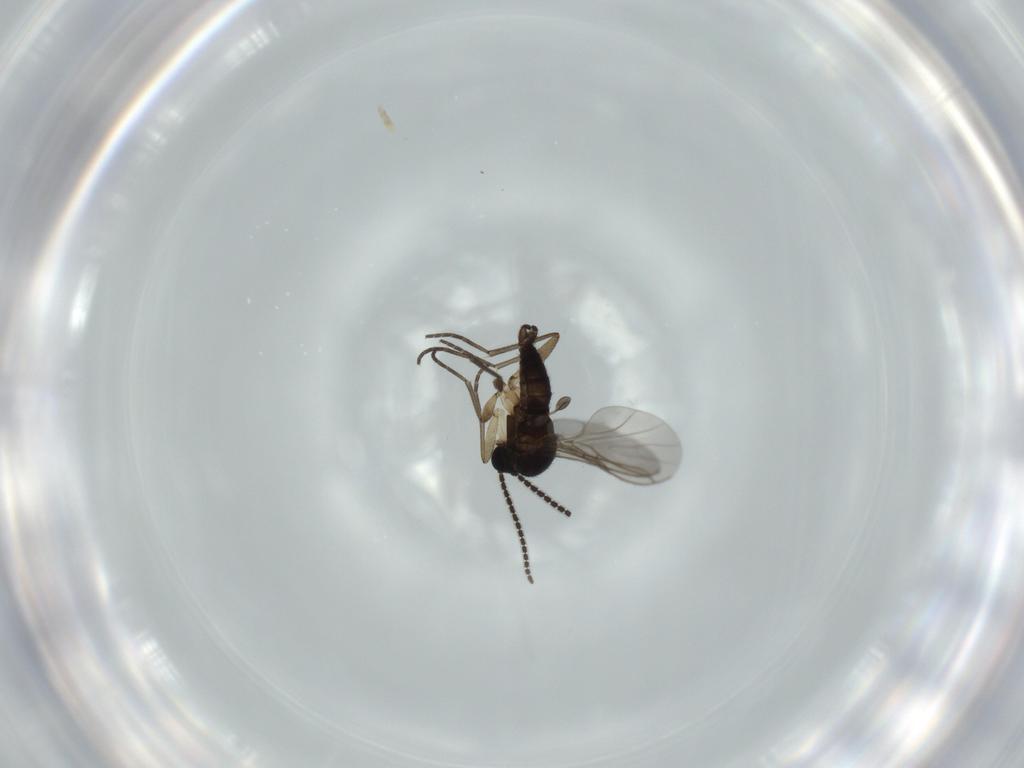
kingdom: Animalia
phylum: Arthropoda
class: Insecta
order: Diptera
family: Sciaridae
